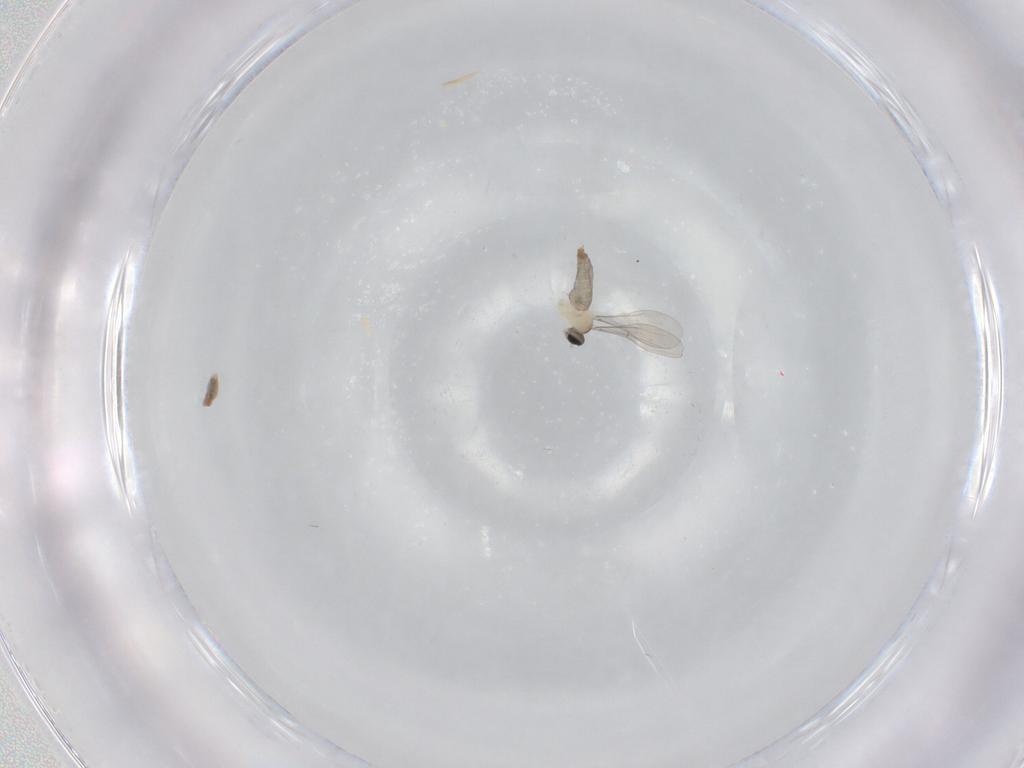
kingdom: Animalia
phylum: Arthropoda
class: Insecta
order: Diptera
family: Cecidomyiidae
